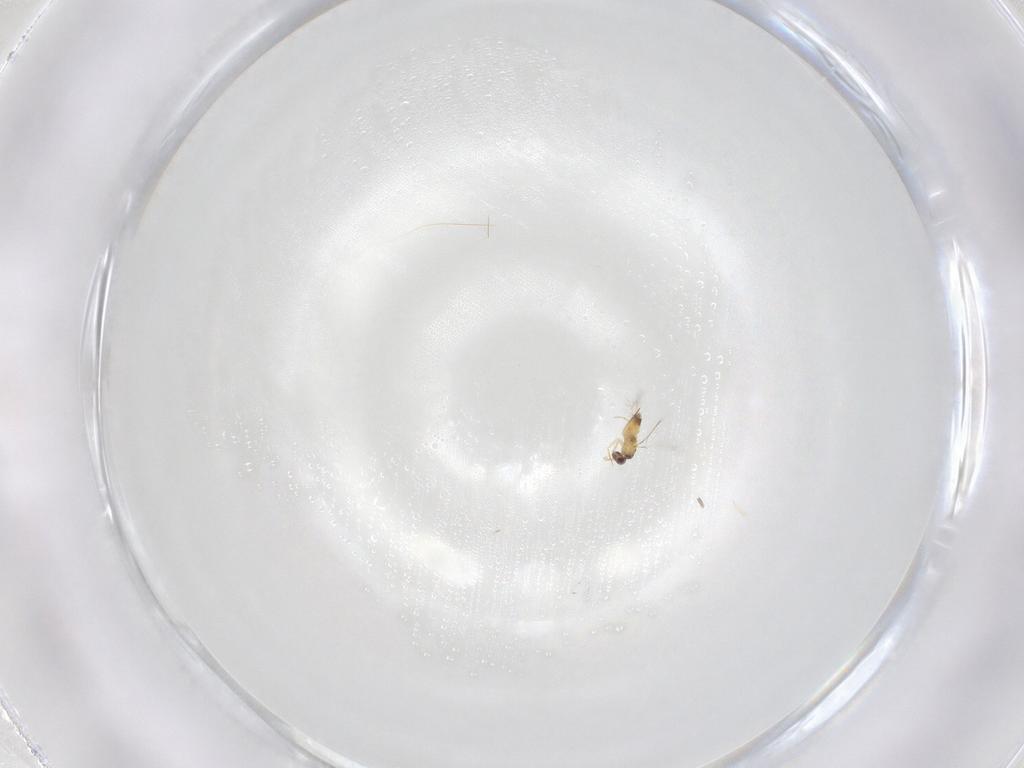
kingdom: Animalia
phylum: Arthropoda
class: Insecta
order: Hymenoptera
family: Mymaridae
